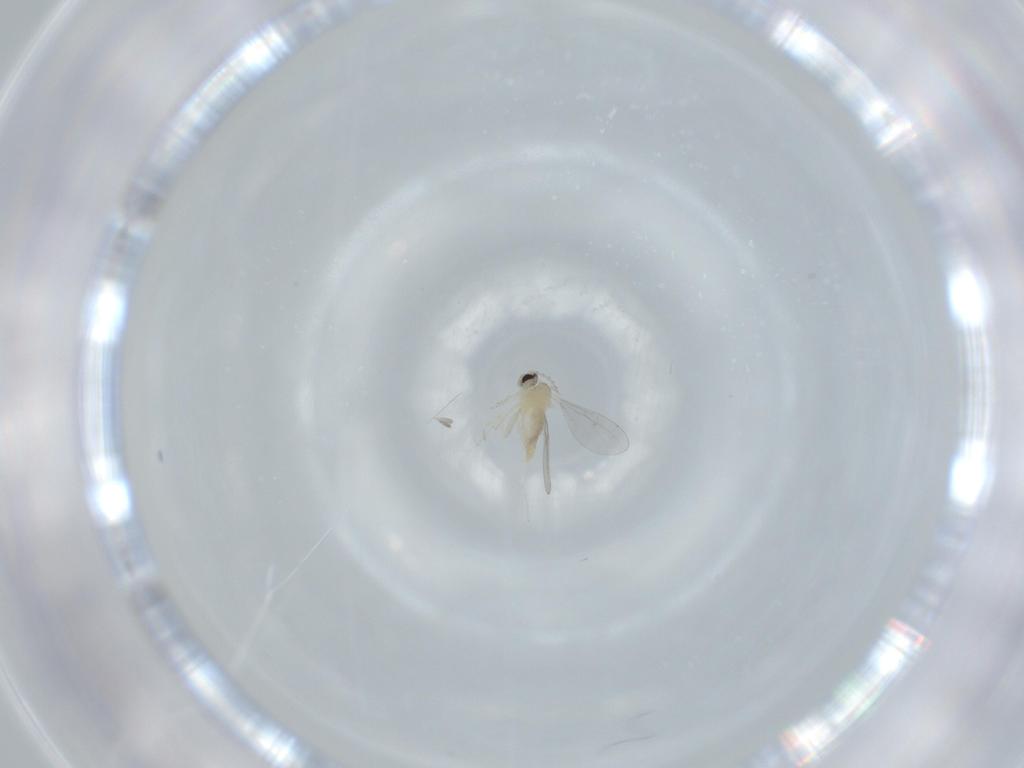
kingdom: Animalia
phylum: Arthropoda
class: Insecta
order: Diptera
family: Cecidomyiidae
